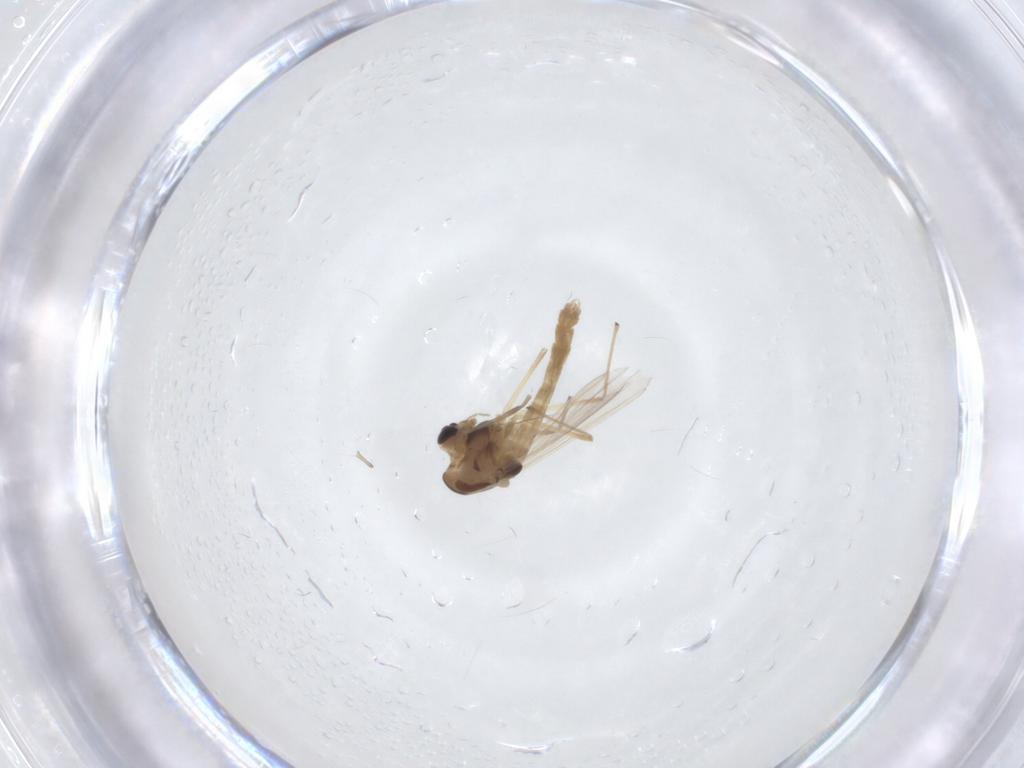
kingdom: Animalia
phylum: Arthropoda
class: Insecta
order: Diptera
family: Chironomidae
